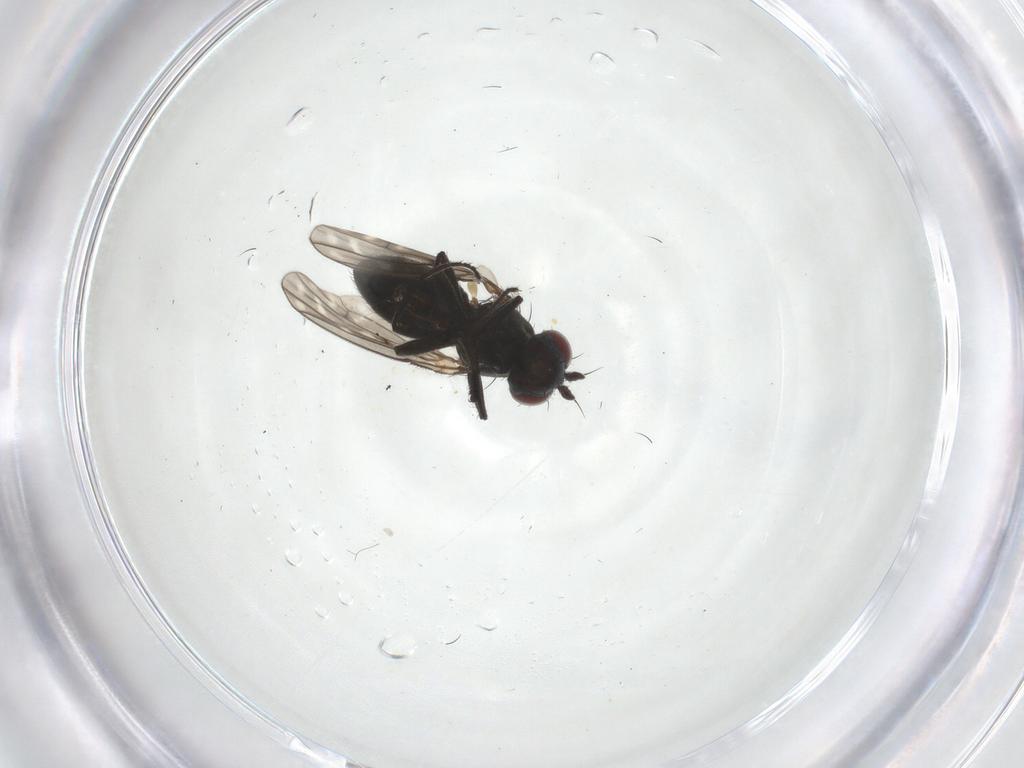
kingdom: Animalia
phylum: Arthropoda
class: Insecta
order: Diptera
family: Ephydridae
